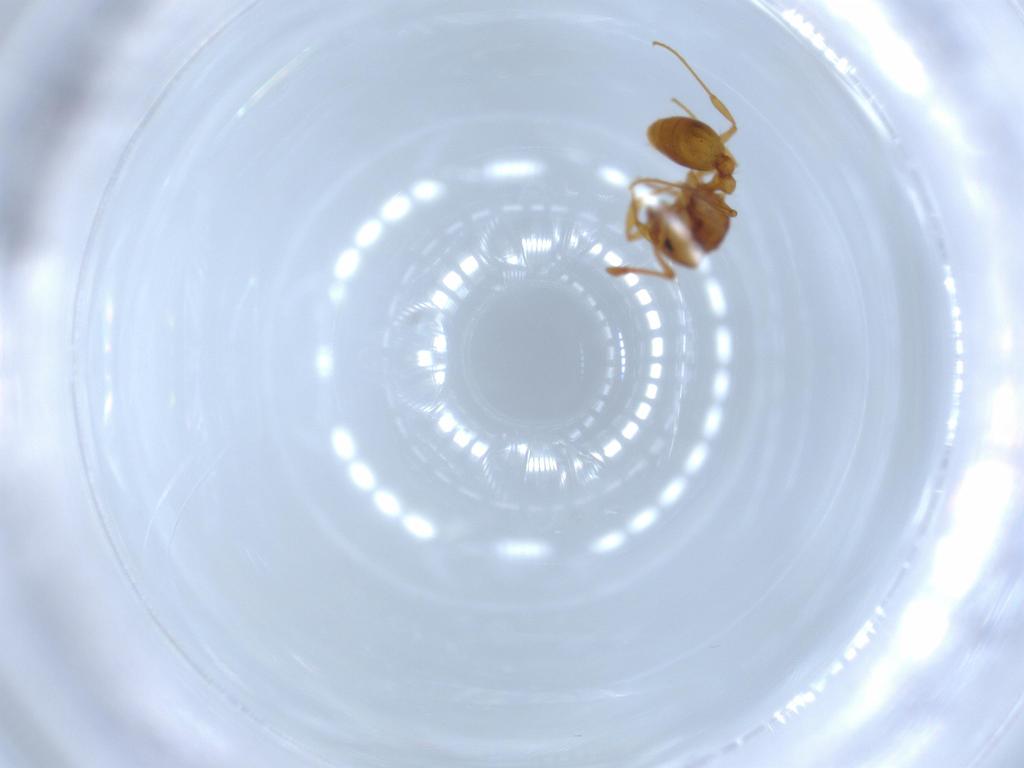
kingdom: Animalia
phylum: Arthropoda
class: Insecta
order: Hymenoptera
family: Formicidae
